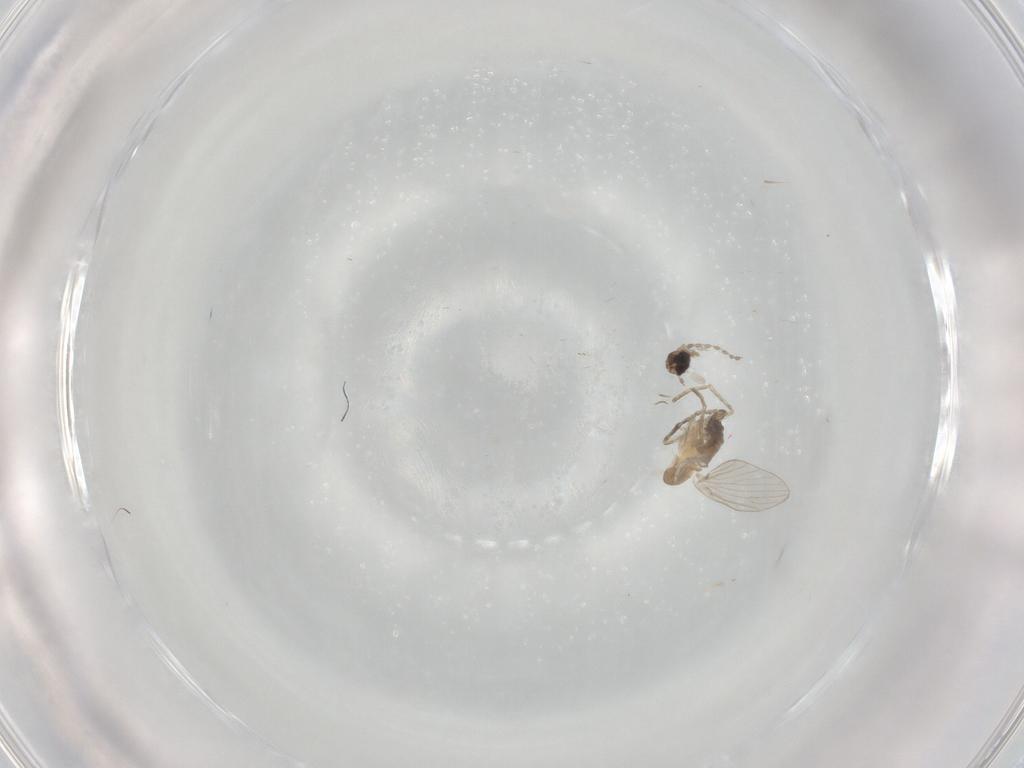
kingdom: Animalia
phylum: Arthropoda
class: Insecta
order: Diptera
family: Cecidomyiidae
